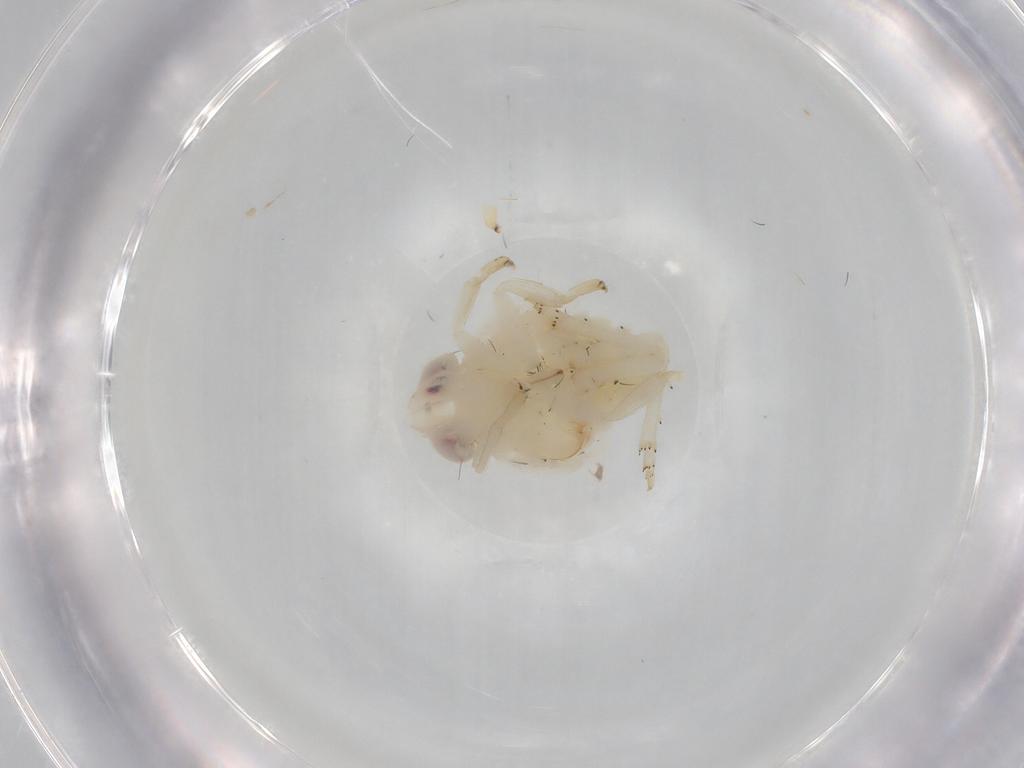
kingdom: Animalia
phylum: Arthropoda
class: Insecta
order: Hemiptera
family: Nogodinidae
